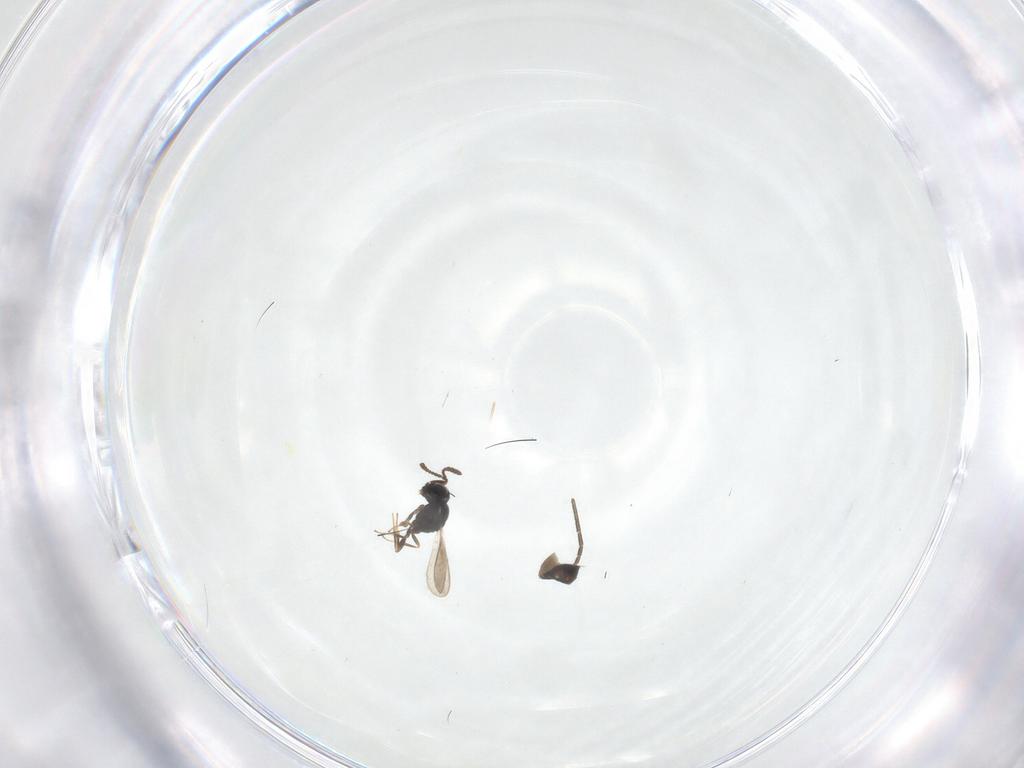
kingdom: Animalia
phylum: Arthropoda
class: Insecta
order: Hymenoptera
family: Scelionidae
